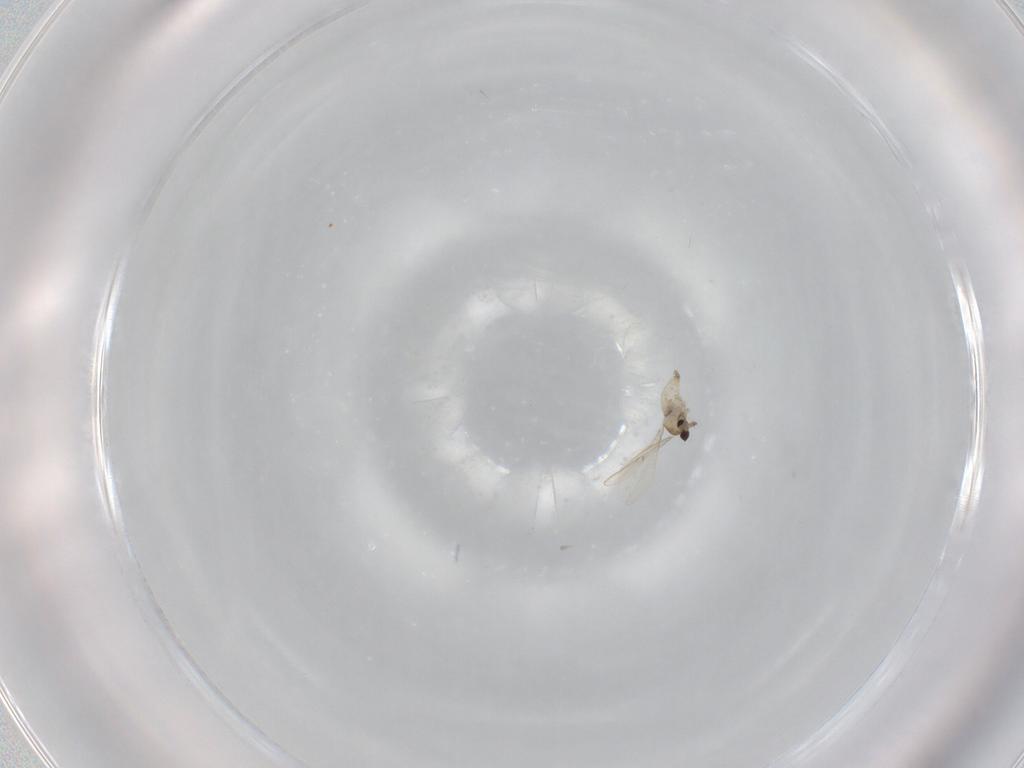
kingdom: Animalia
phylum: Arthropoda
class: Insecta
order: Diptera
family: Cecidomyiidae
